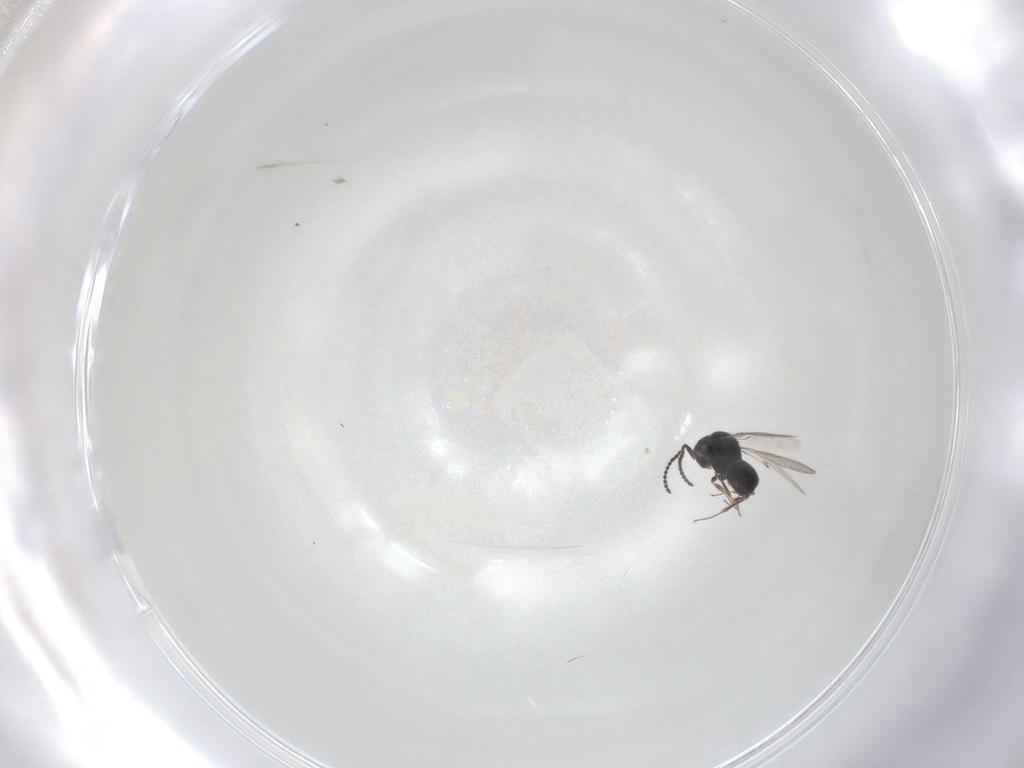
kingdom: Animalia
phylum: Arthropoda
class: Insecta
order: Hymenoptera
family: Scelionidae
